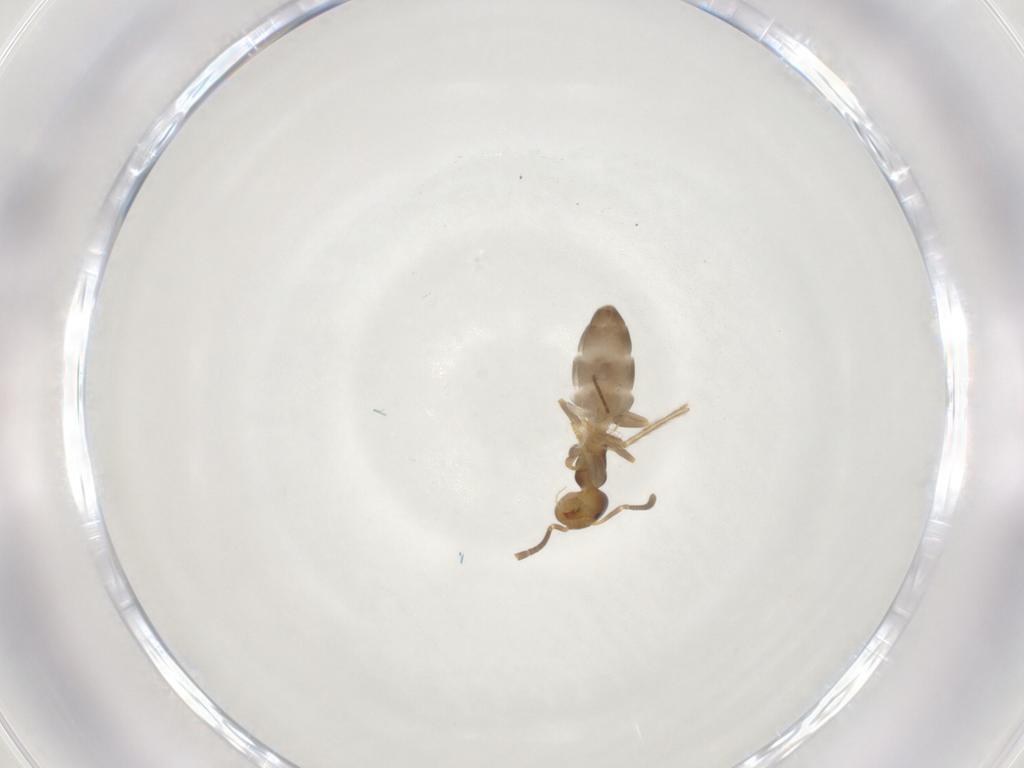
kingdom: Animalia
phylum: Arthropoda
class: Insecta
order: Hymenoptera
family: Formicidae
